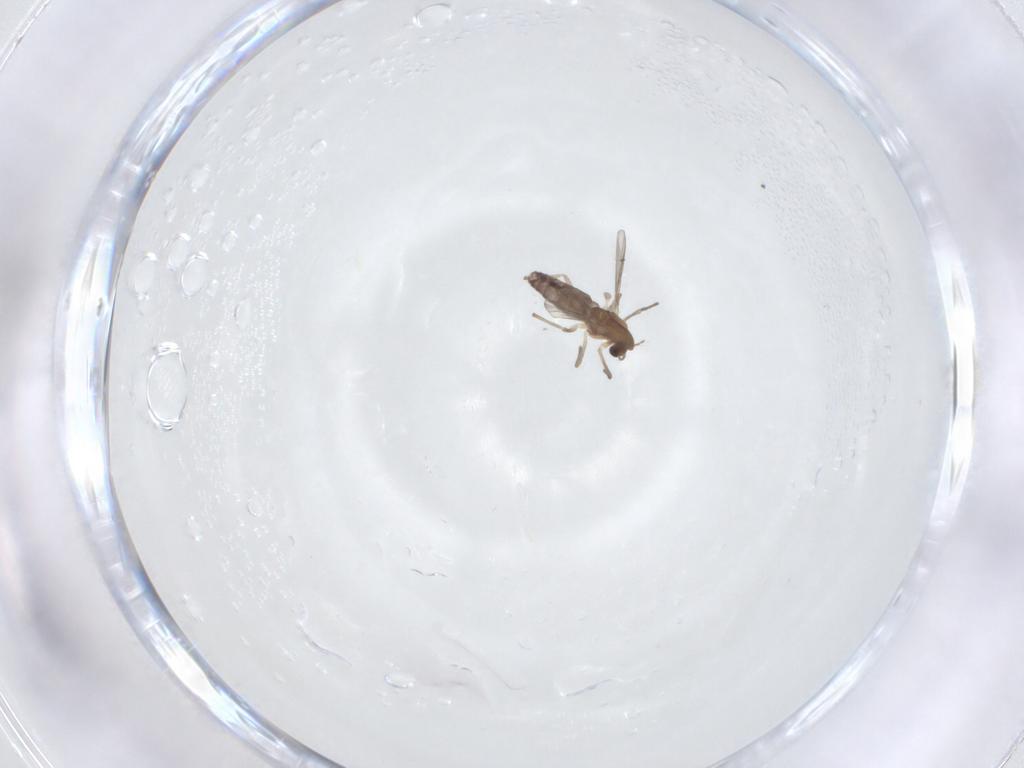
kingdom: Animalia
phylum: Arthropoda
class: Insecta
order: Diptera
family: Chironomidae
